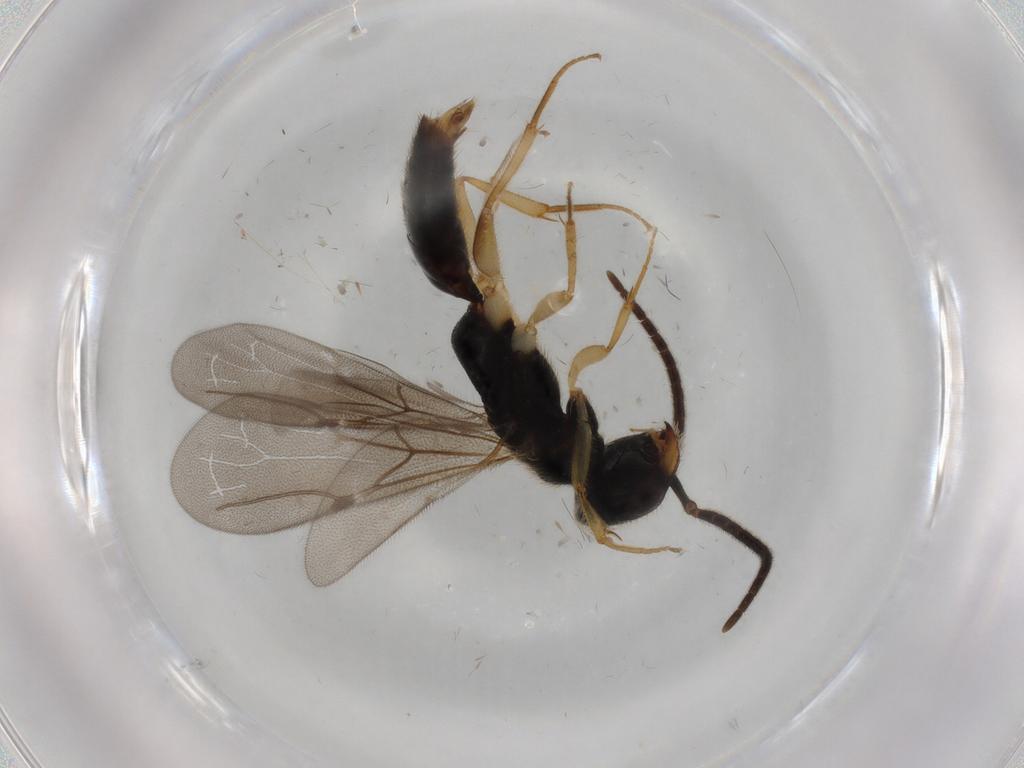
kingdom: Animalia
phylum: Arthropoda
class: Insecta
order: Hymenoptera
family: Bethylidae
